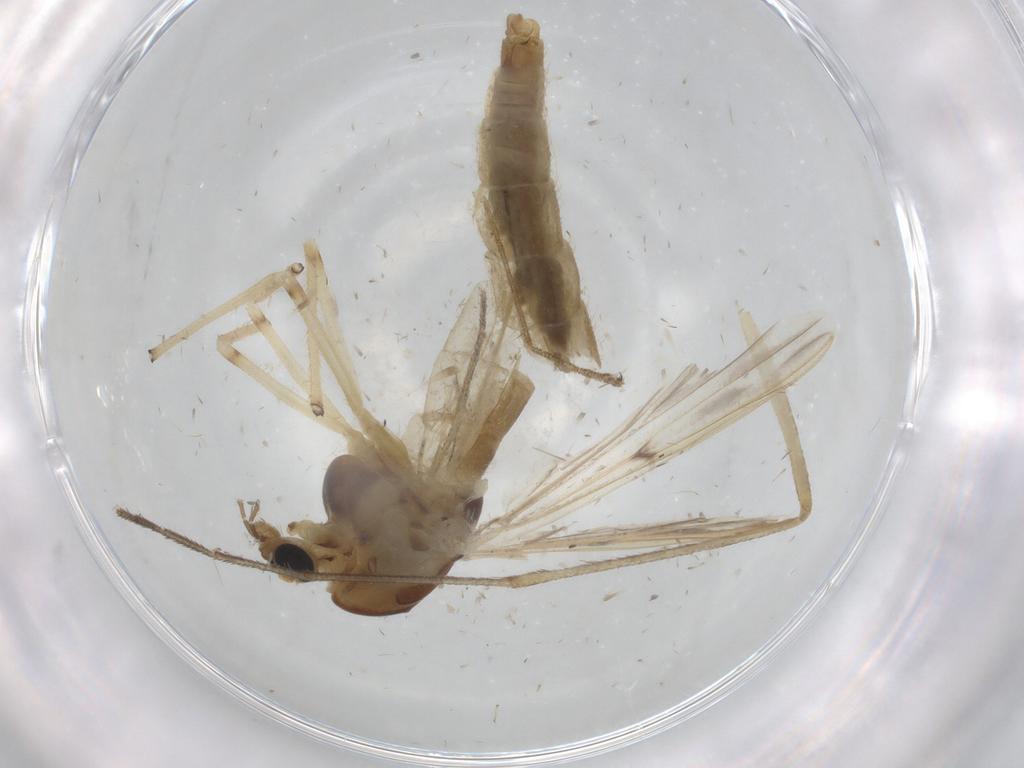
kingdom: Animalia
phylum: Arthropoda
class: Insecta
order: Diptera
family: Chironomidae
